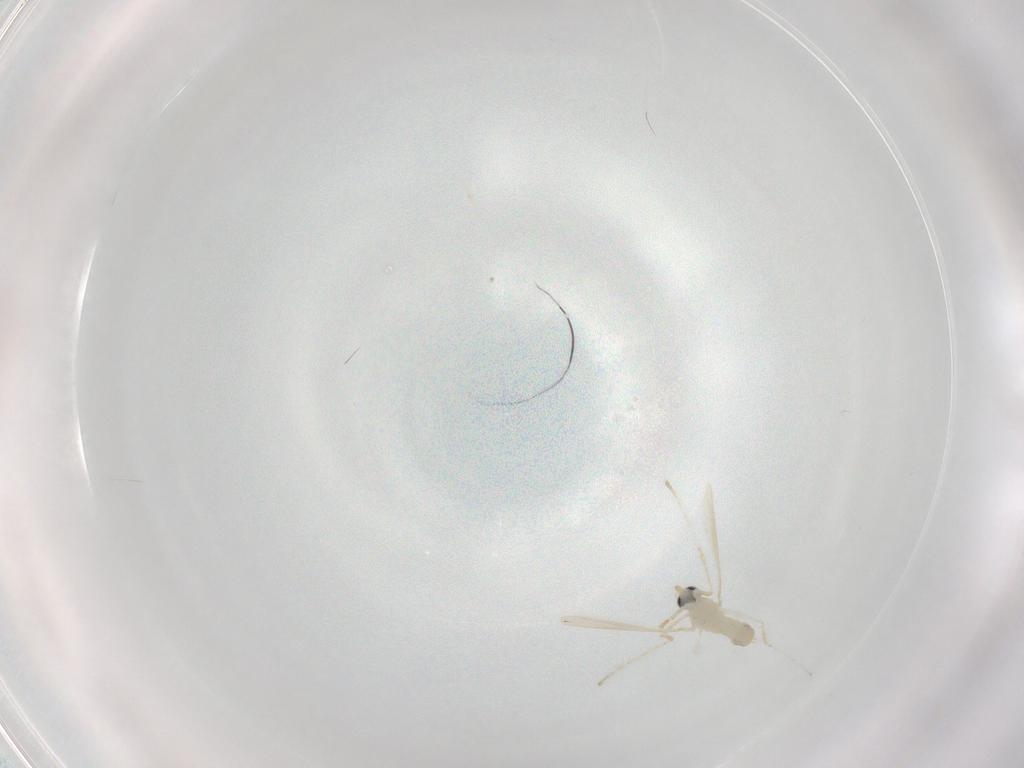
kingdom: Animalia
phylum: Arthropoda
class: Insecta
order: Diptera
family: Cecidomyiidae
